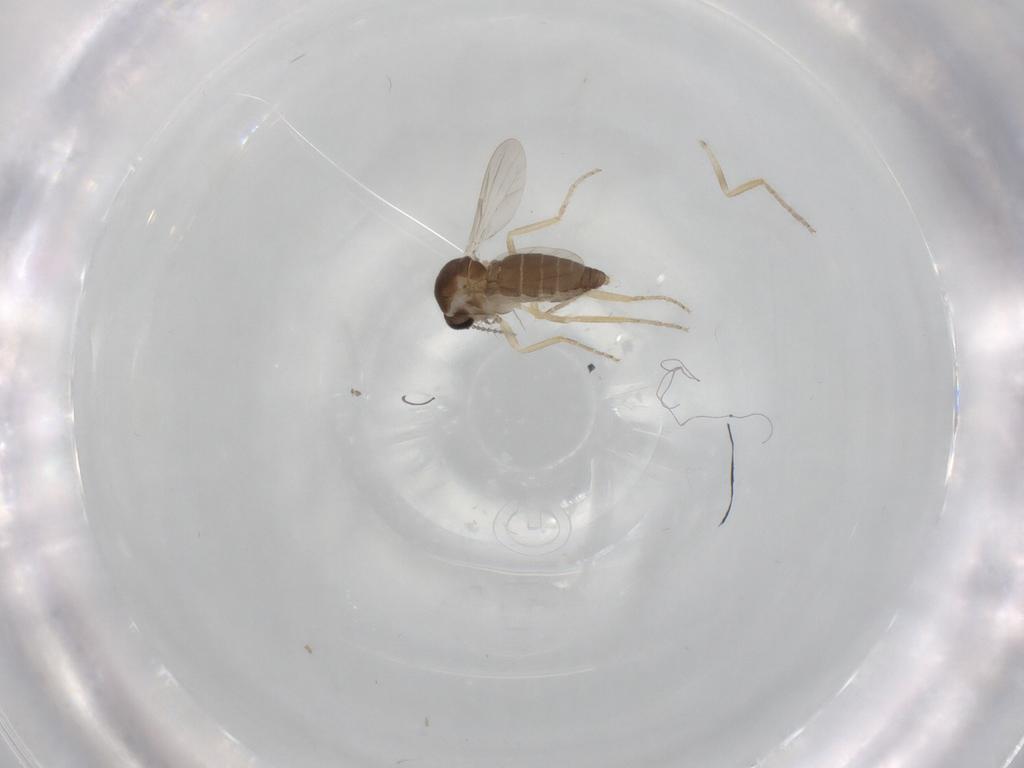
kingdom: Animalia
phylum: Arthropoda
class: Insecta
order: Diptera
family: Ceratopogonidae
